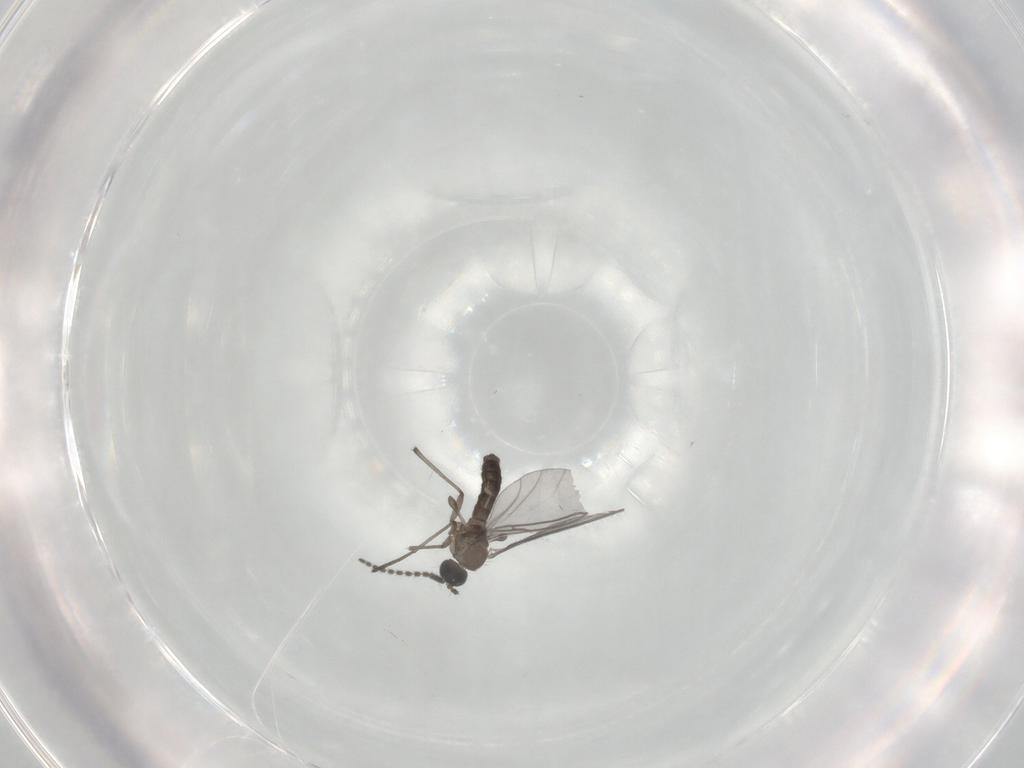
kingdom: Animalia
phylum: Arthropoda
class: Insecta
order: Diptera
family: Sciaridae
